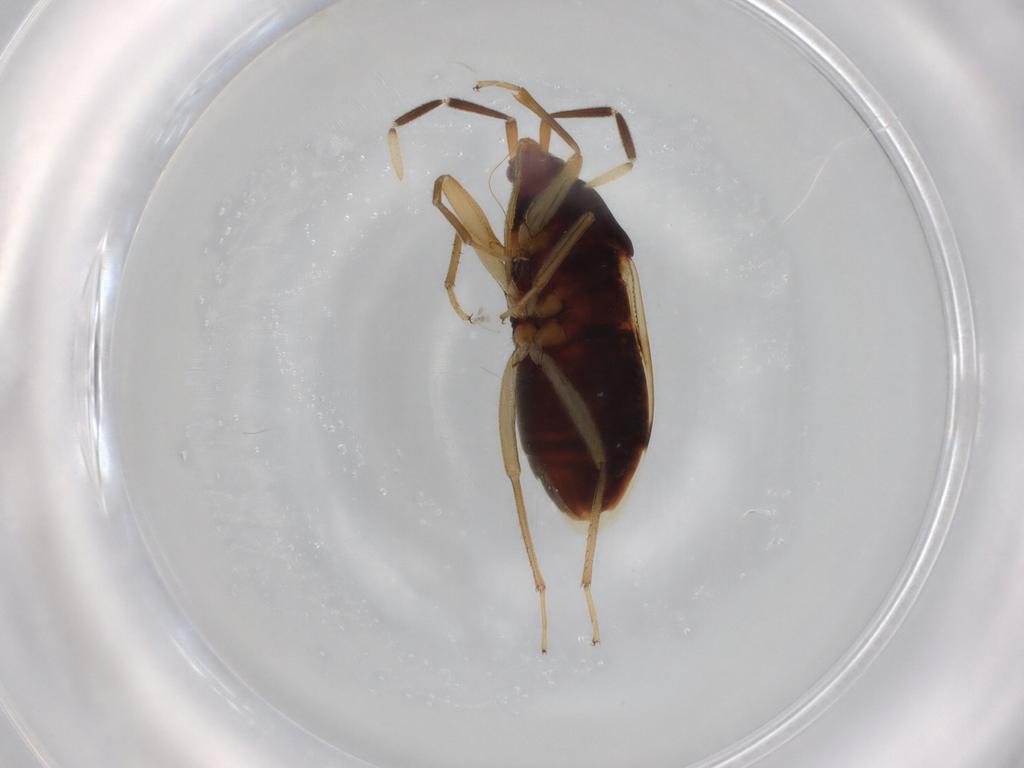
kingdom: Animalia
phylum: Arthropoda
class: Insecta
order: Hemiptera
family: Rhyparochromidae
